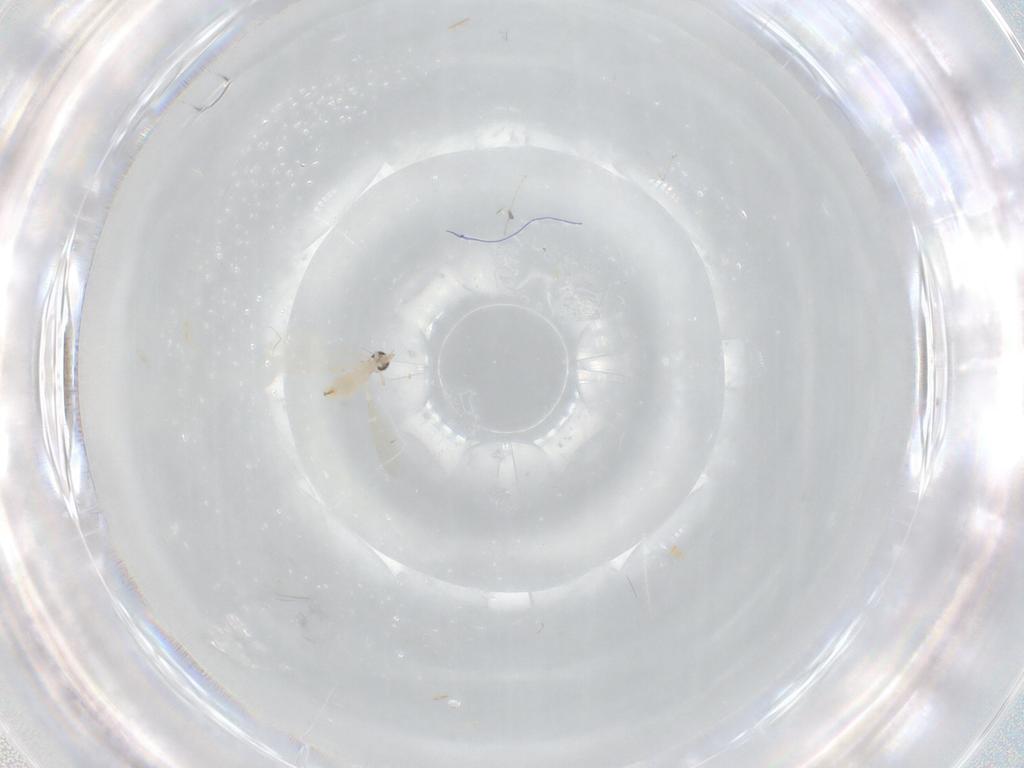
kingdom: Animalia
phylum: Arthropoda
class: Insecta
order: Diptera
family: Cecidomyiidae
